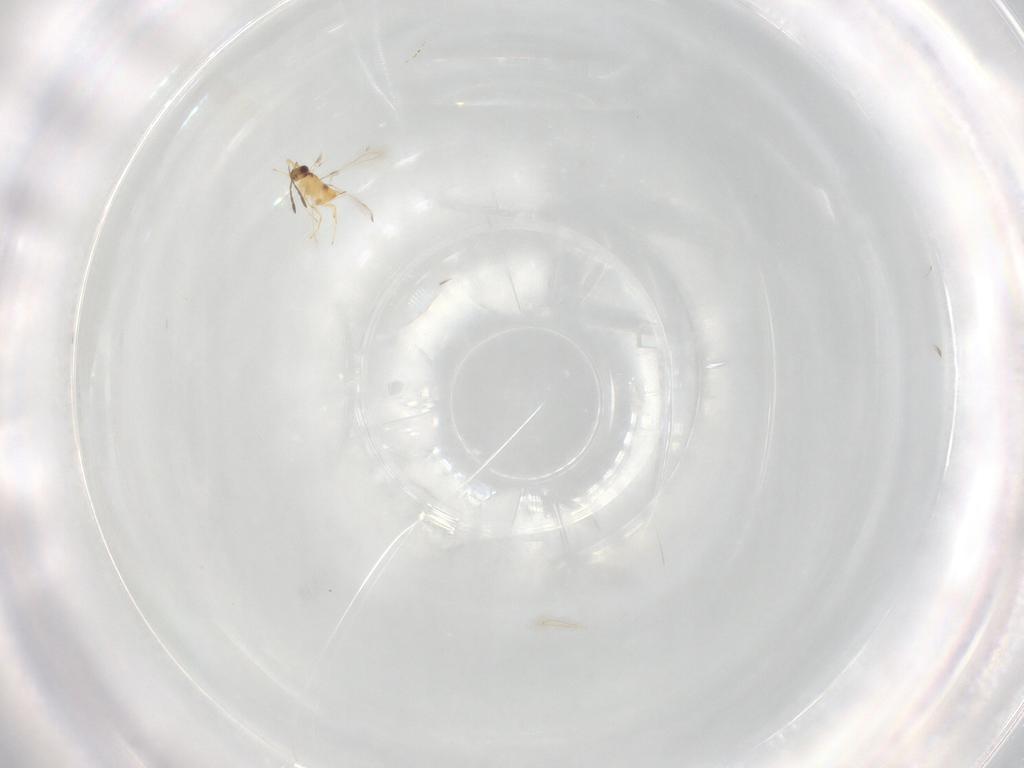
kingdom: Animalia
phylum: Arthropoda
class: Insecta
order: Hymenoptera
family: Mymaridae
